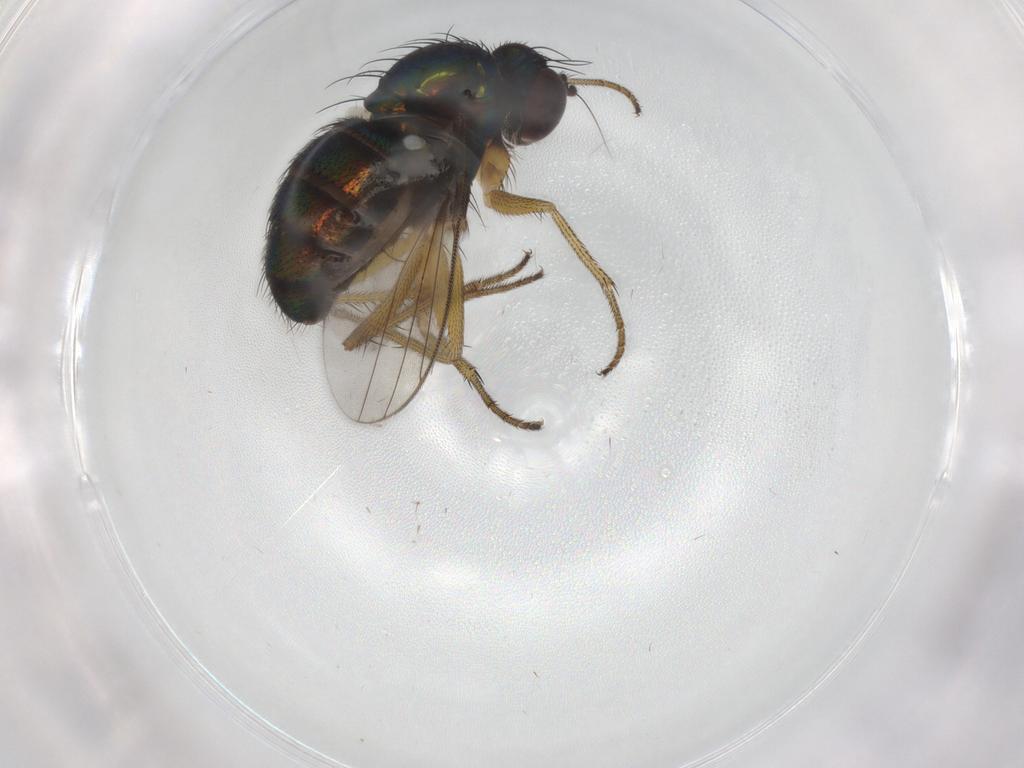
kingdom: Animalia
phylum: Arthropoda
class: Insecta
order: Diptera
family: Dolichopodidae
